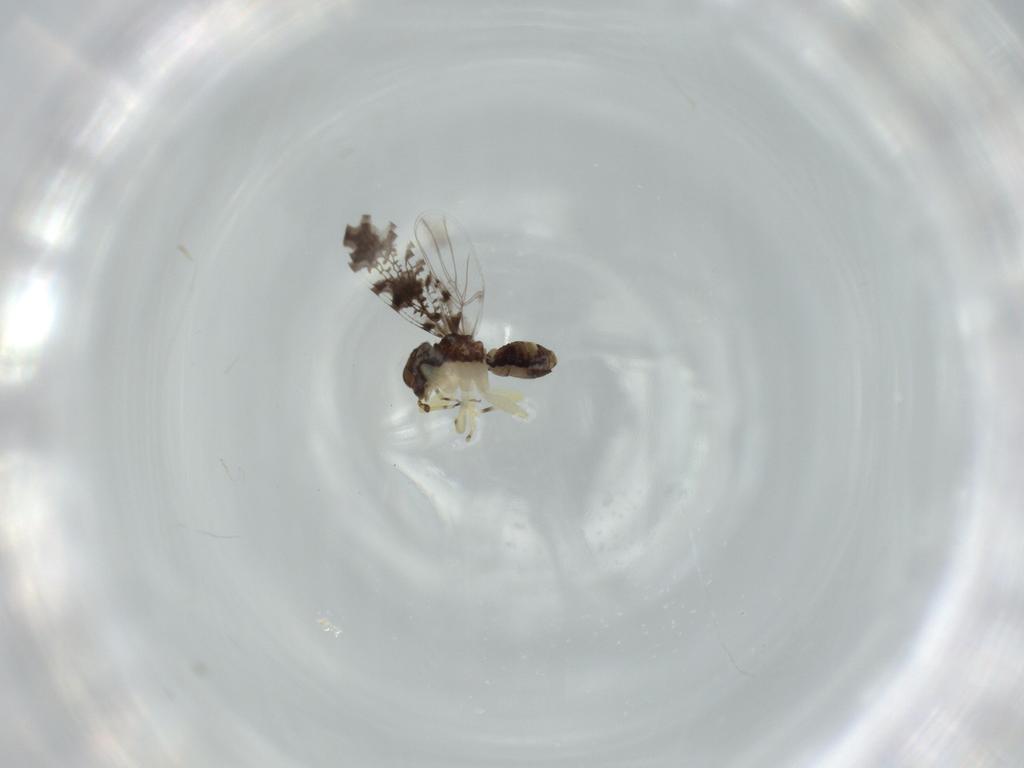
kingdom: Animalia
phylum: Arthropoda
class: Insecta
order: Psocodea
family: Psoquillidae
